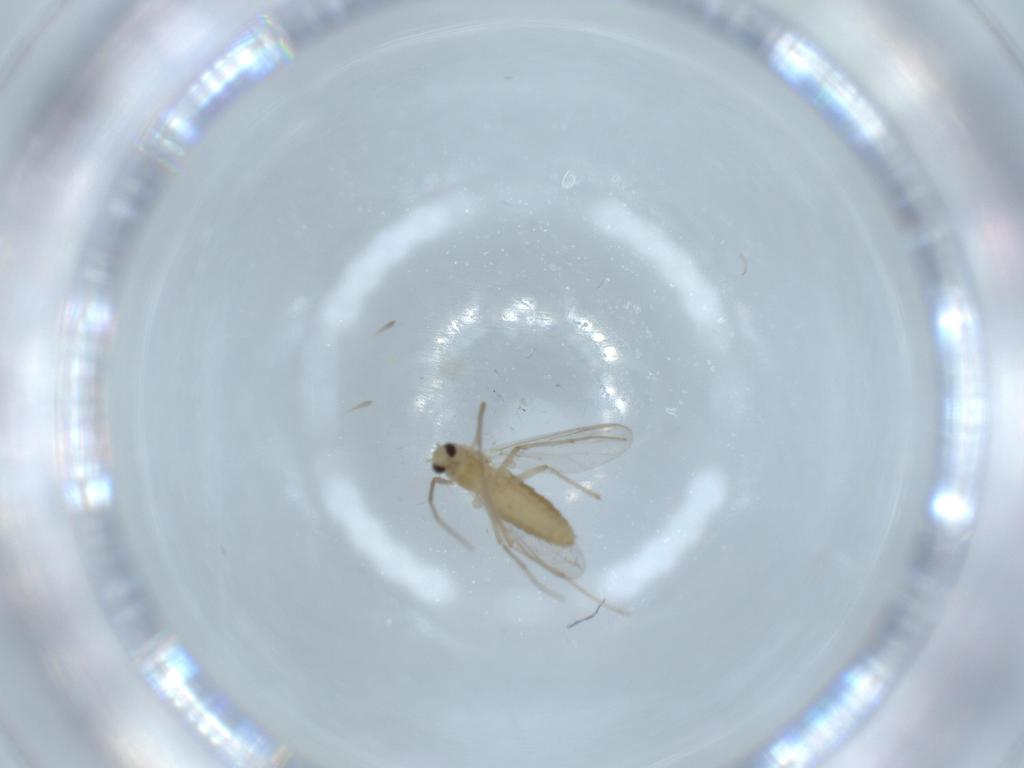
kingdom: Animalia
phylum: Arthropoda
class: Insecta
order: Diptera
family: Chironomidae
